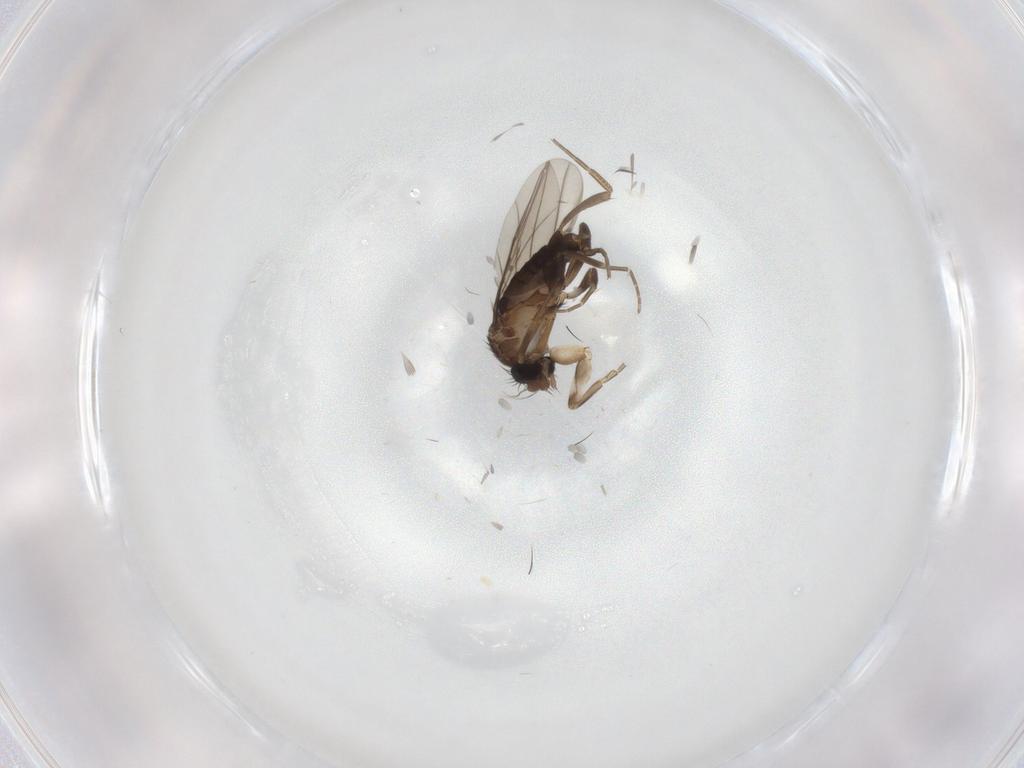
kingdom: Animalia
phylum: Arthropoda
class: Insecta
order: Diptera
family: Phoridae
